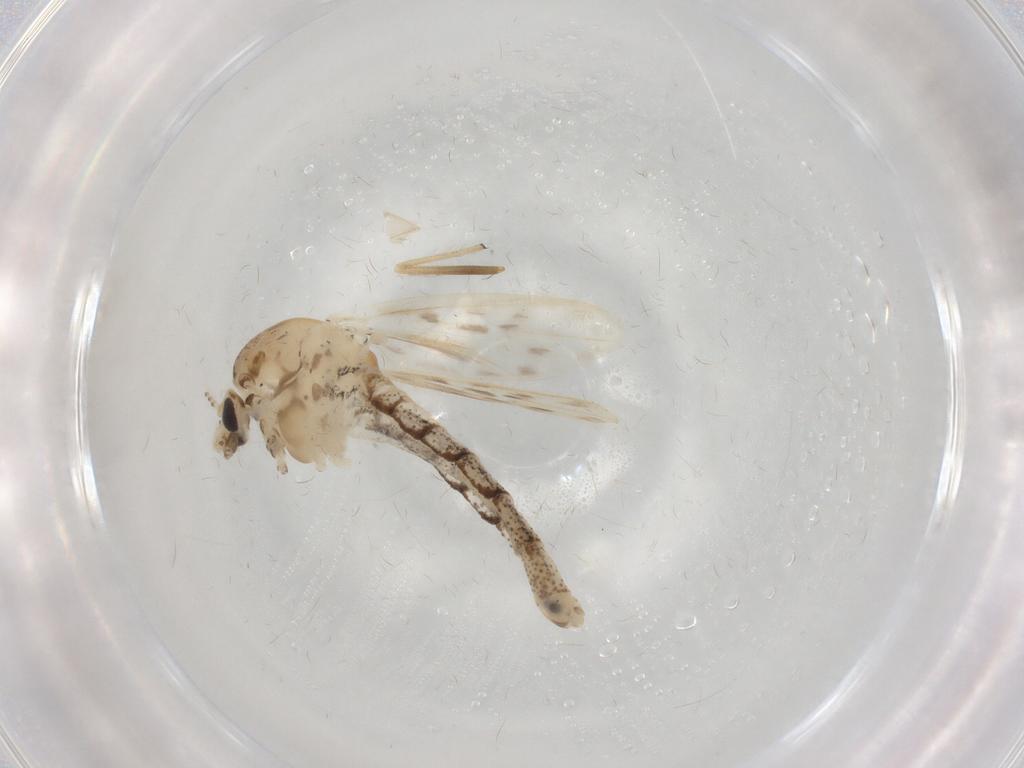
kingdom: Animalia
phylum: Arthropoda
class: Insecta
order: Diptera
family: Chironomidae
